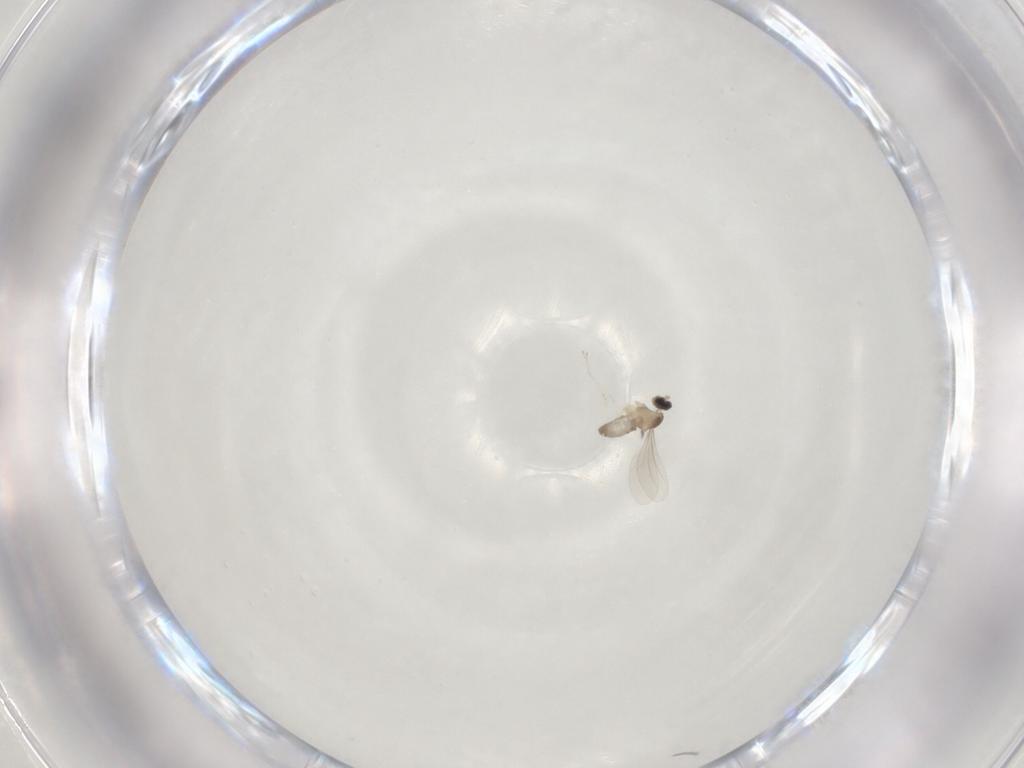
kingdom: Animalia
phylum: Arthropoda
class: Insecta
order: Diptera
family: Cecidomyiidae
